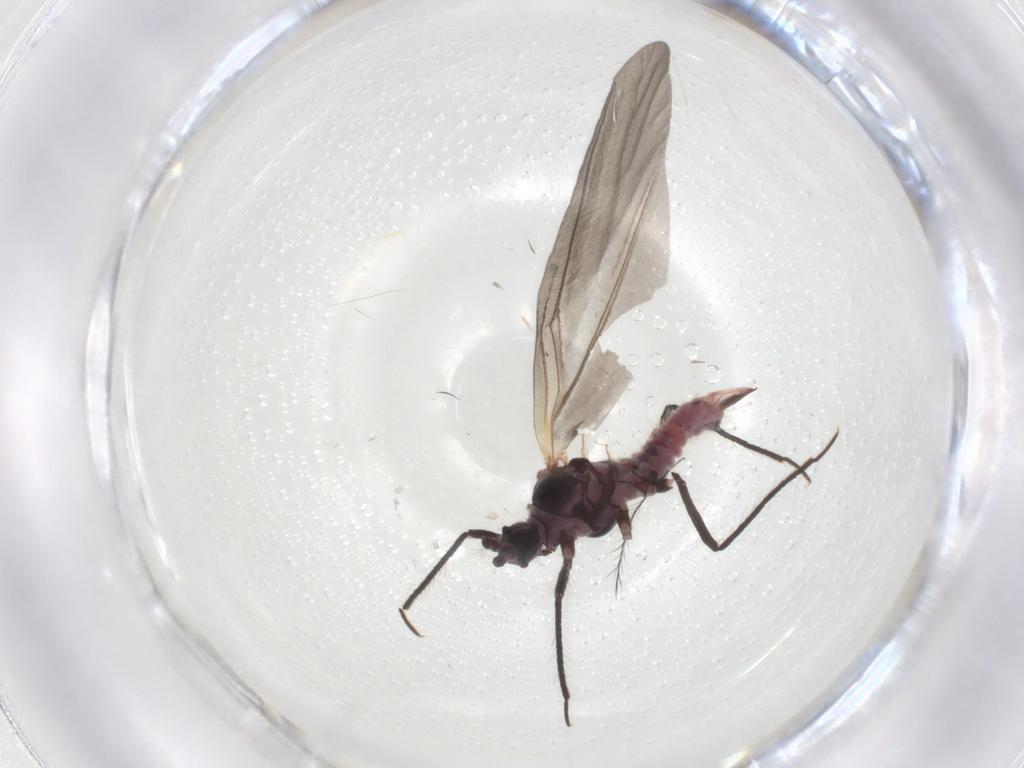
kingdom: Animalia
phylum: Arthropoda
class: Insecta
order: Hemiptera
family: Putoidae
